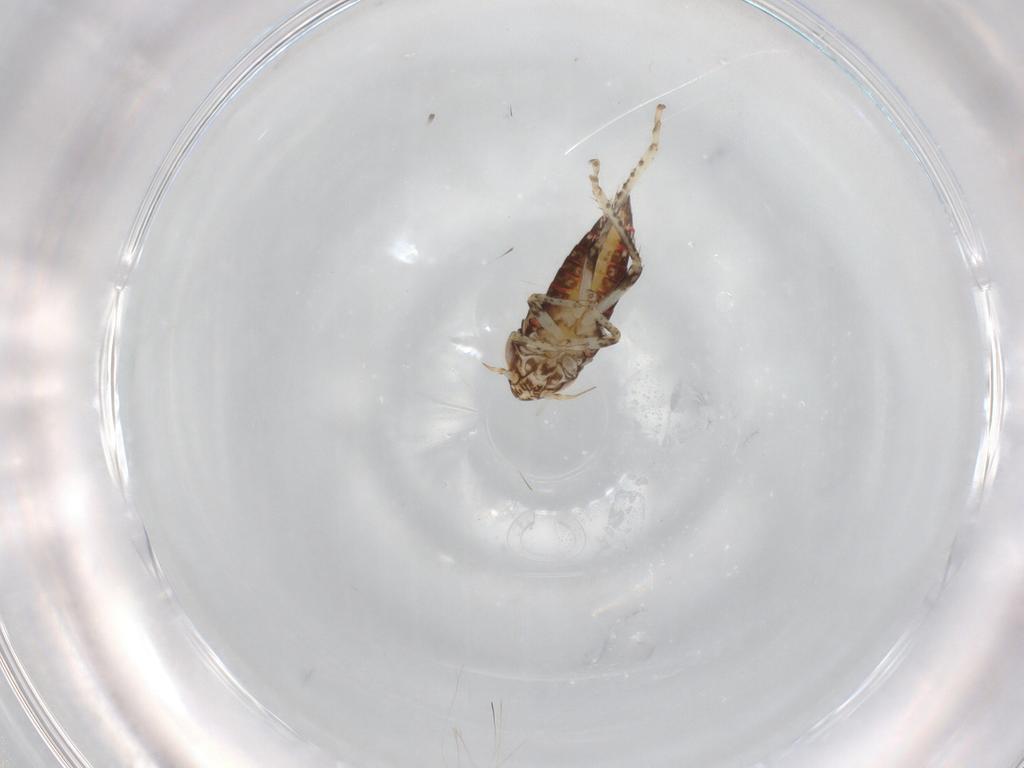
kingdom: Animalia
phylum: Arthropoda
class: Insecta
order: Hemiptera
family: Cicadellidae
